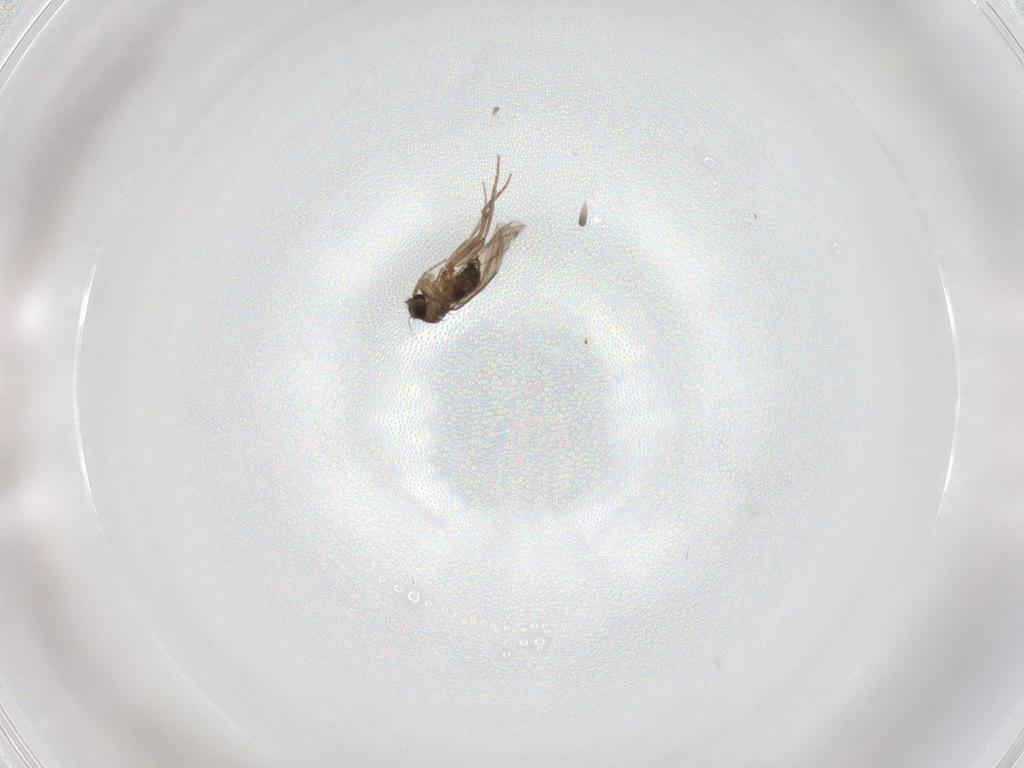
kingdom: Animalia
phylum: Arthropoda
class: Insecta
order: Diptera
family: Phoridae
